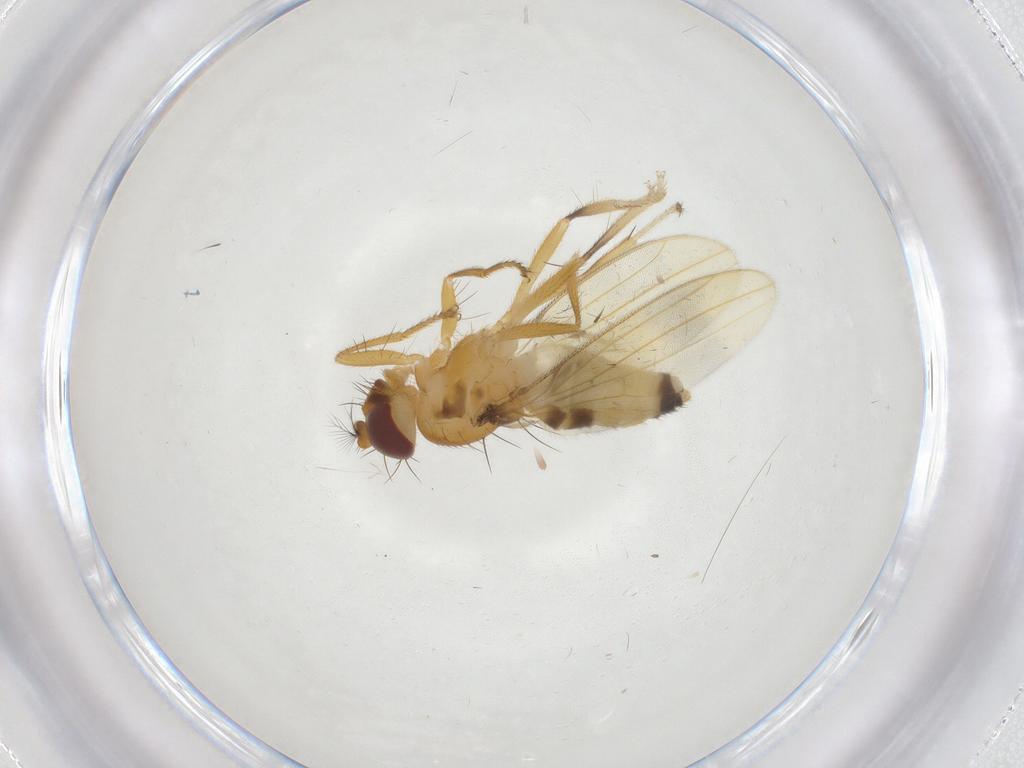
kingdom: Animalia
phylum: Arthropoda
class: Insecta
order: Diptera
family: Periscelididae
